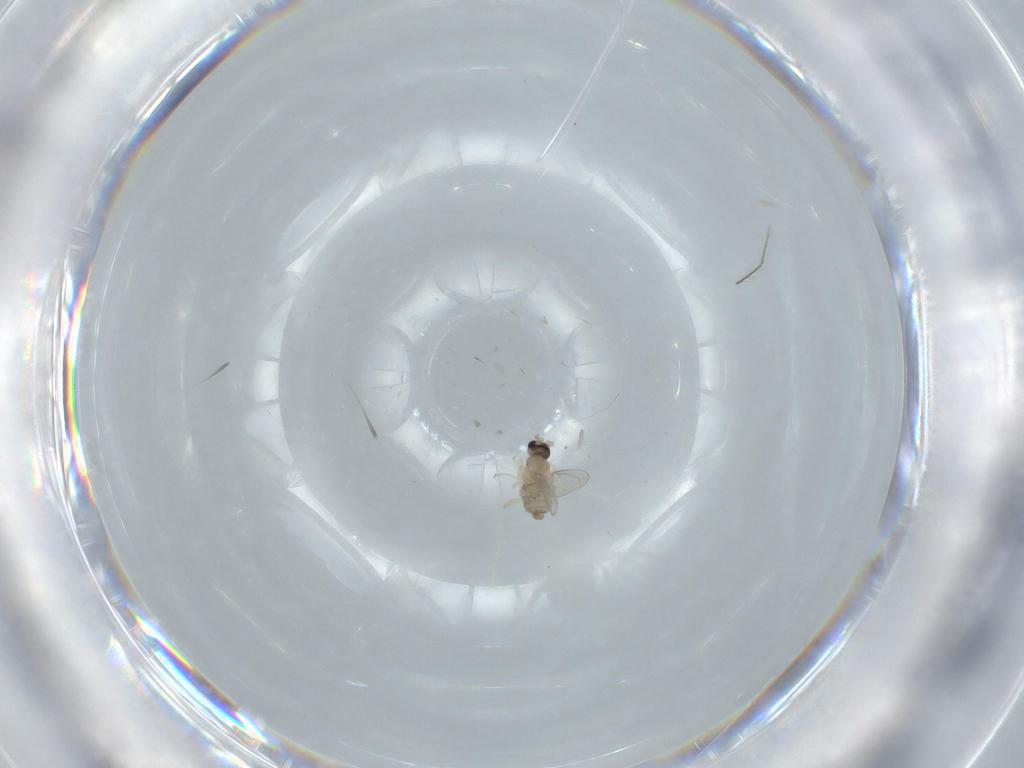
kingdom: Animalia
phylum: Arthropoda
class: Insecta
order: Diptera
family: Cecidomyiidae
